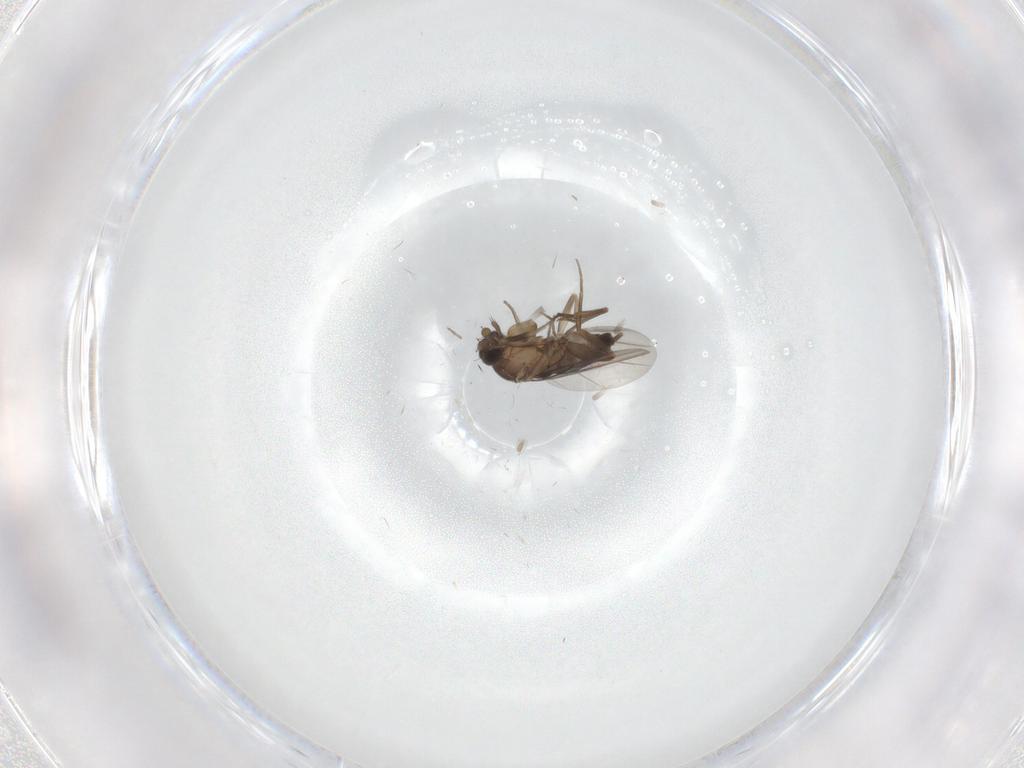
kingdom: Animalia
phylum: Arthropoda
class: Insecta
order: Diptera
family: Phoridae
